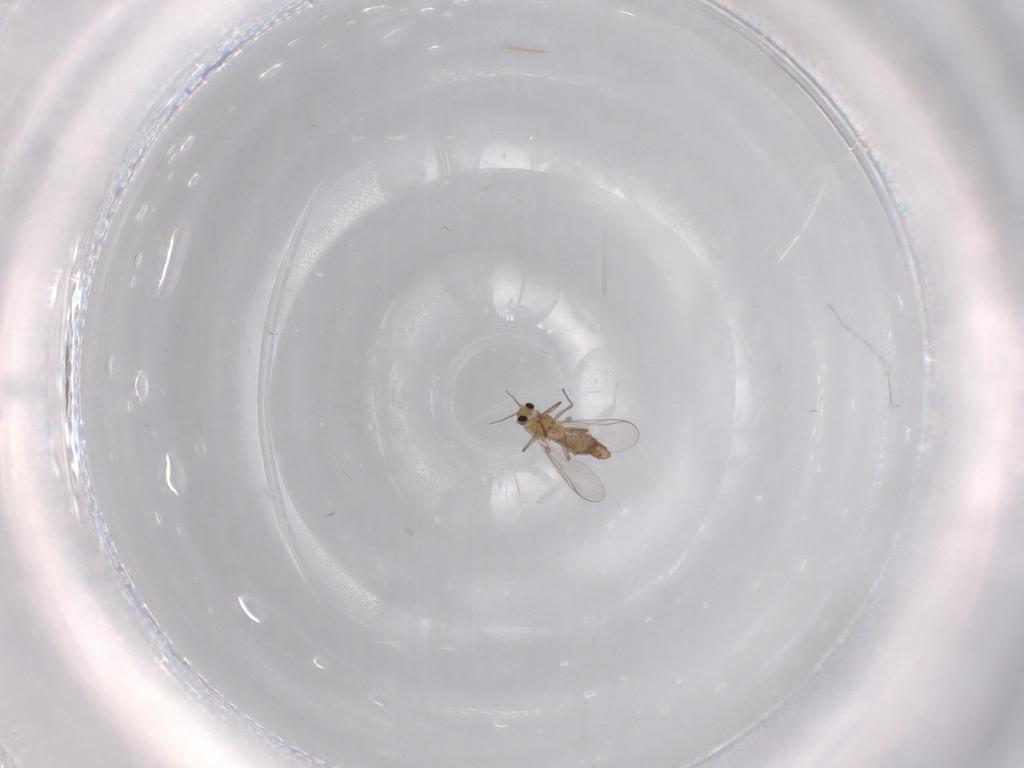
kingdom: Animalia
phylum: Arthropoda
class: Insecta
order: Diptera
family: Chironomidae
